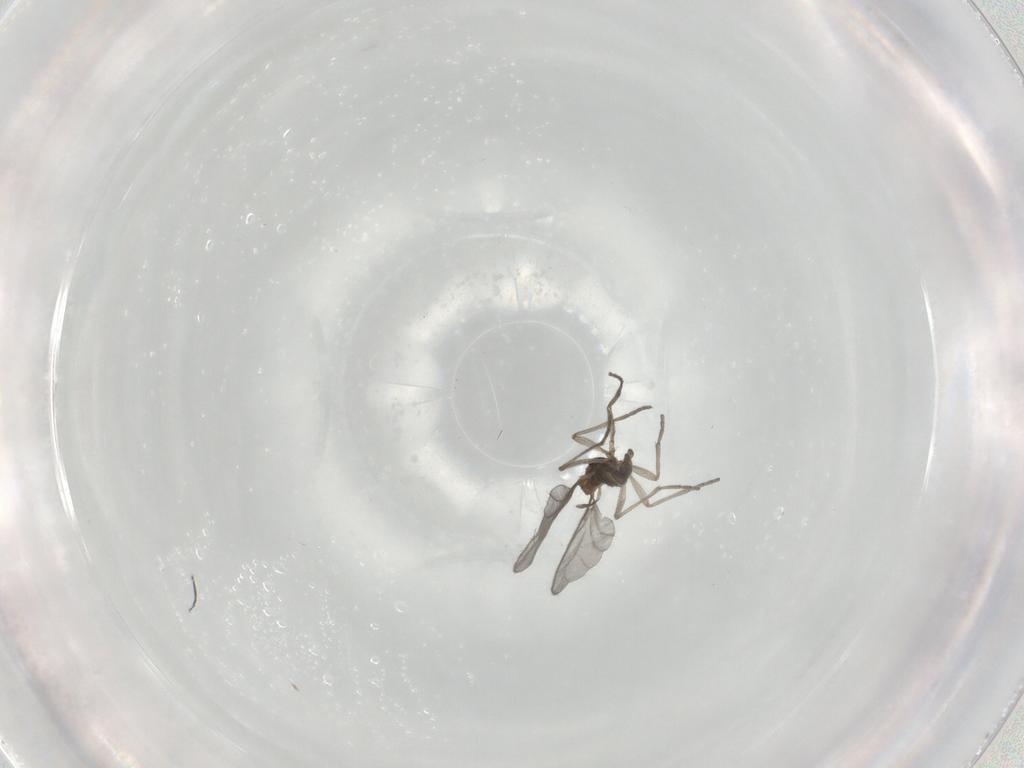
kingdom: Animalia
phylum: Arthropoda
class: Insecta
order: Diptera
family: Sciaridae
